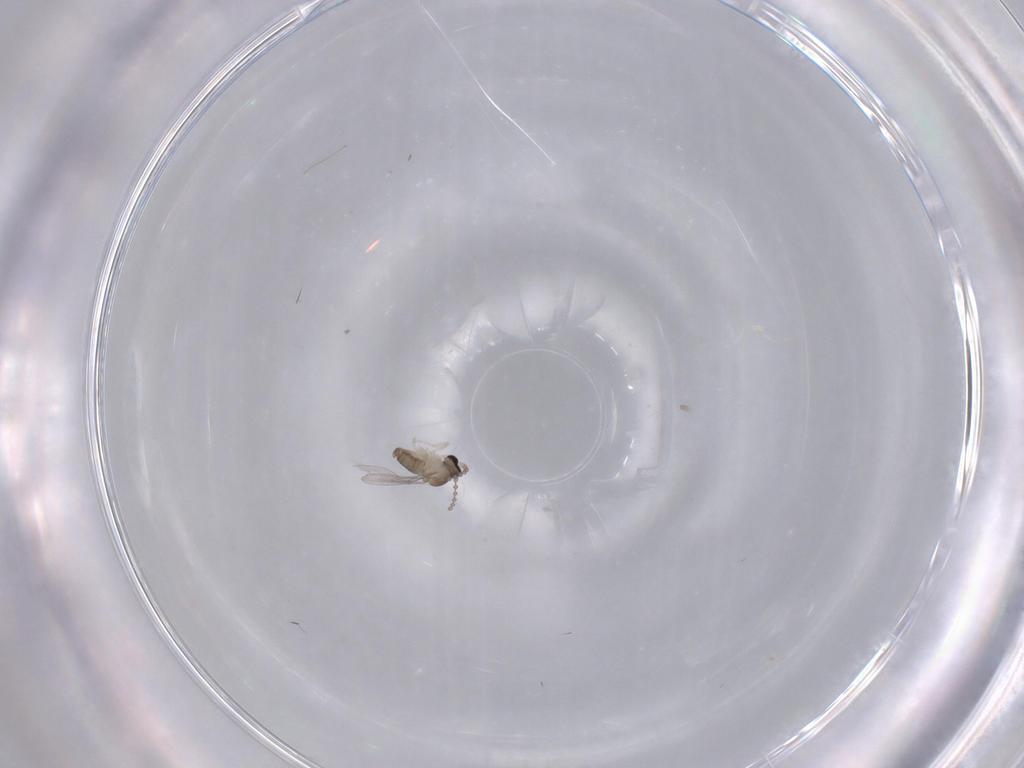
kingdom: Animalia
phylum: Arthropoda
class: Insecta
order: Diptera
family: Cecidomyiidae
